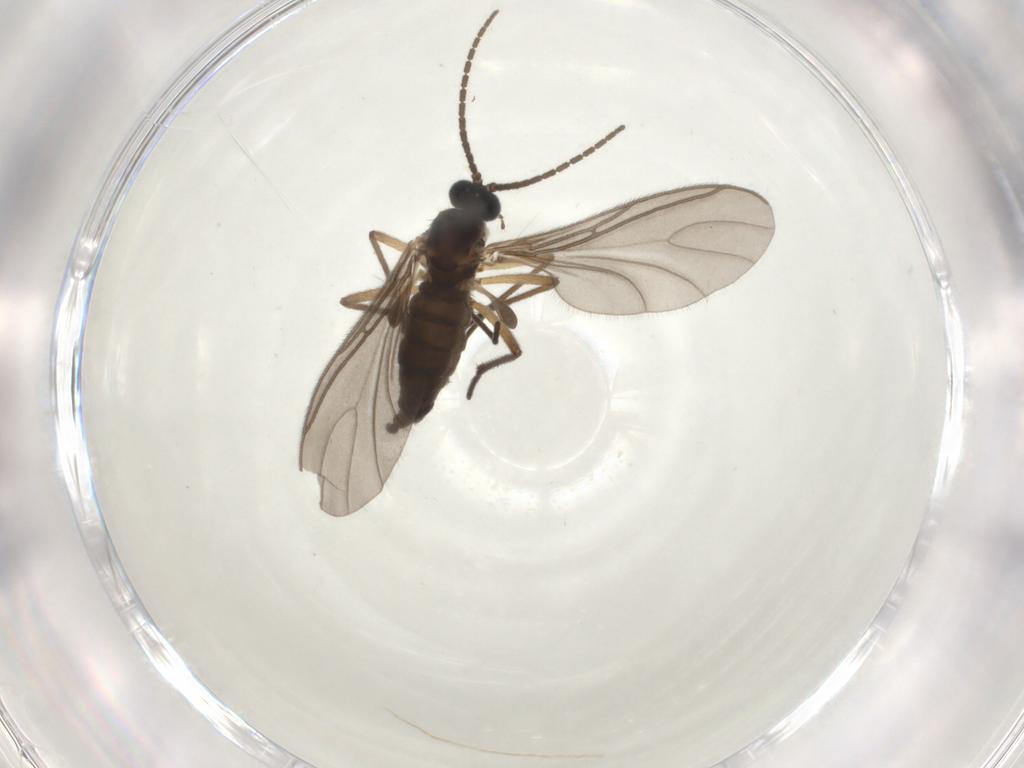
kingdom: Animalia
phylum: Arthropoda
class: Insecta
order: Diptera
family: Sciaridae
